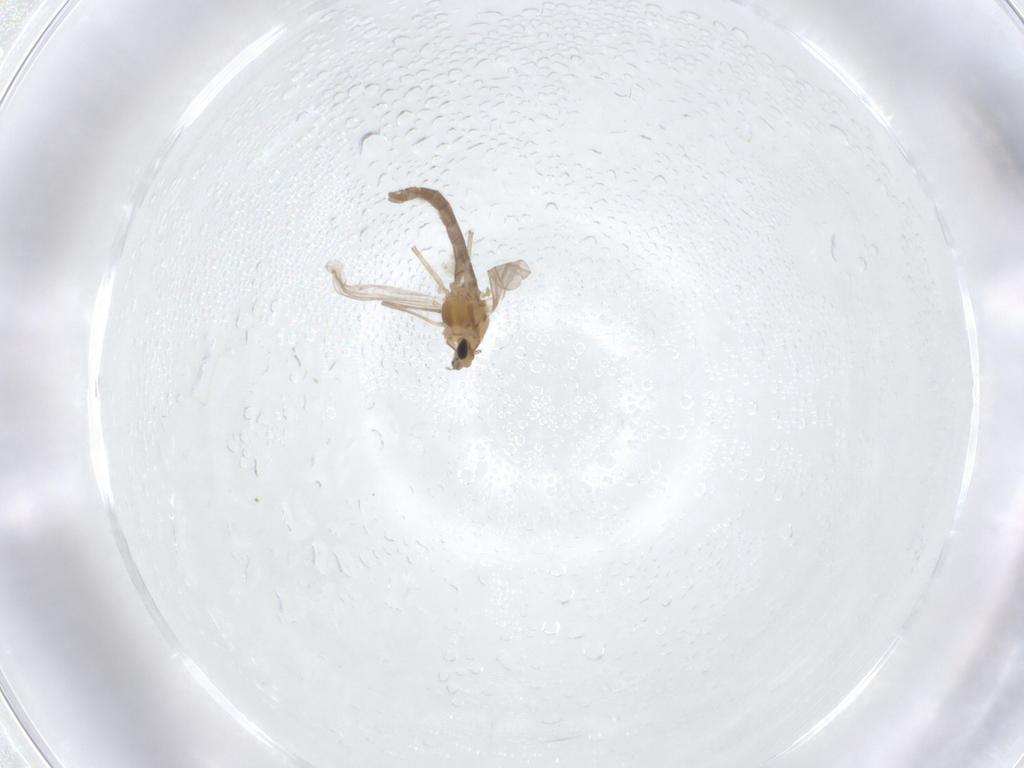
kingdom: Animalia
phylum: Arthropoda
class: Insecta
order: Diptera
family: Chironomidae
